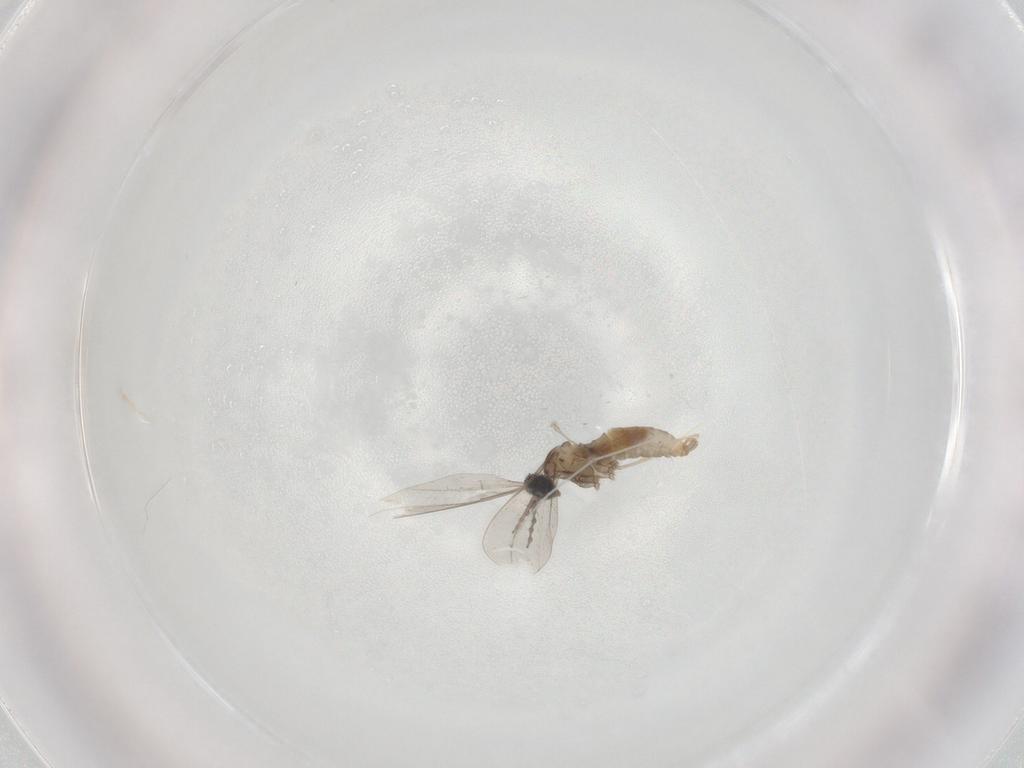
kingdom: Animalia
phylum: Arthropoda
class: Insecta
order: Diptera
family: Cecidomyiidae
